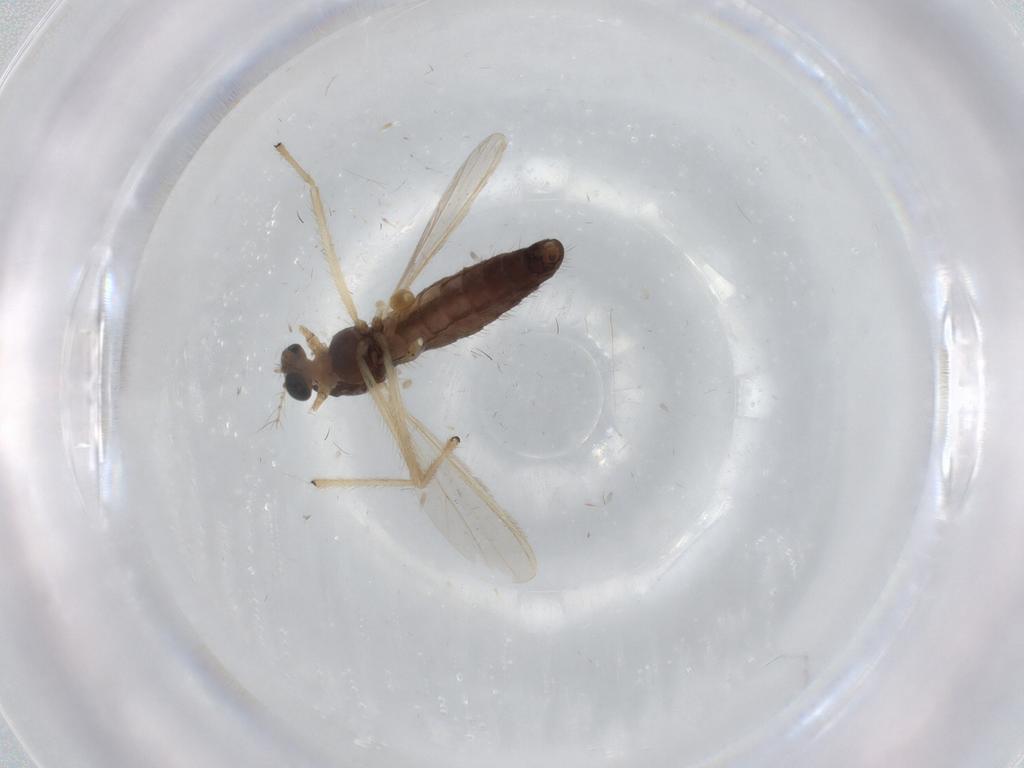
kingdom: Animalia
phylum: Arthropoda
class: Insecta
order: Diptera
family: Chironomidae
